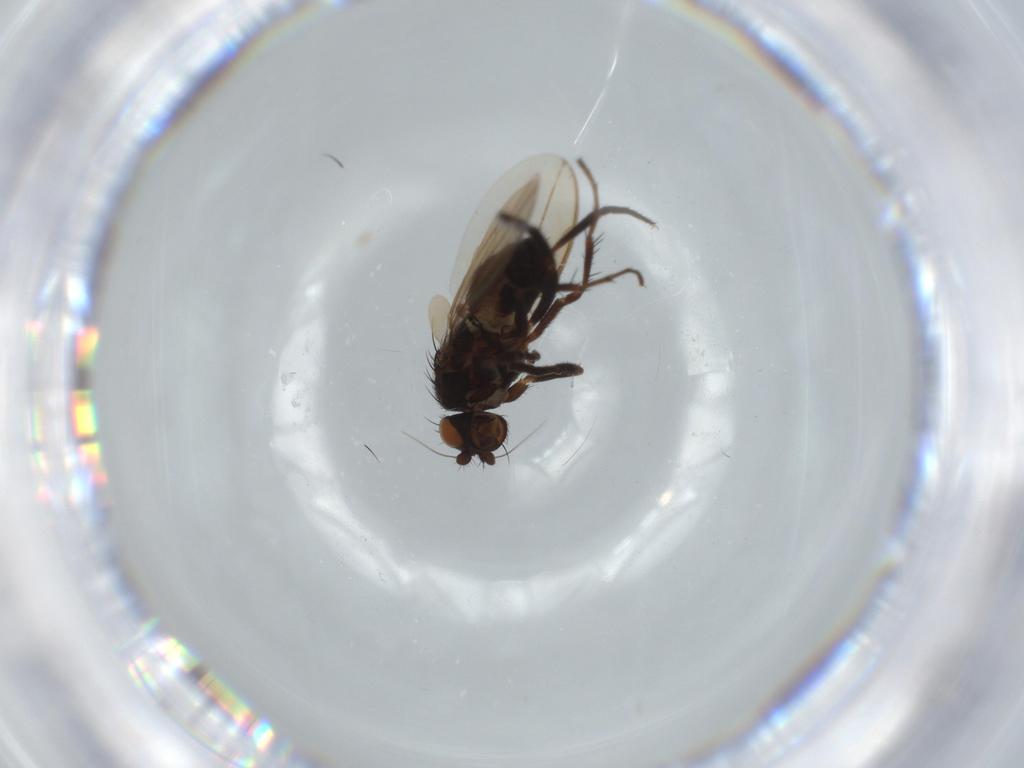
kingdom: Animalia
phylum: Arthropoda
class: Insecta
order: Diptera
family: Sphaeroceridae
